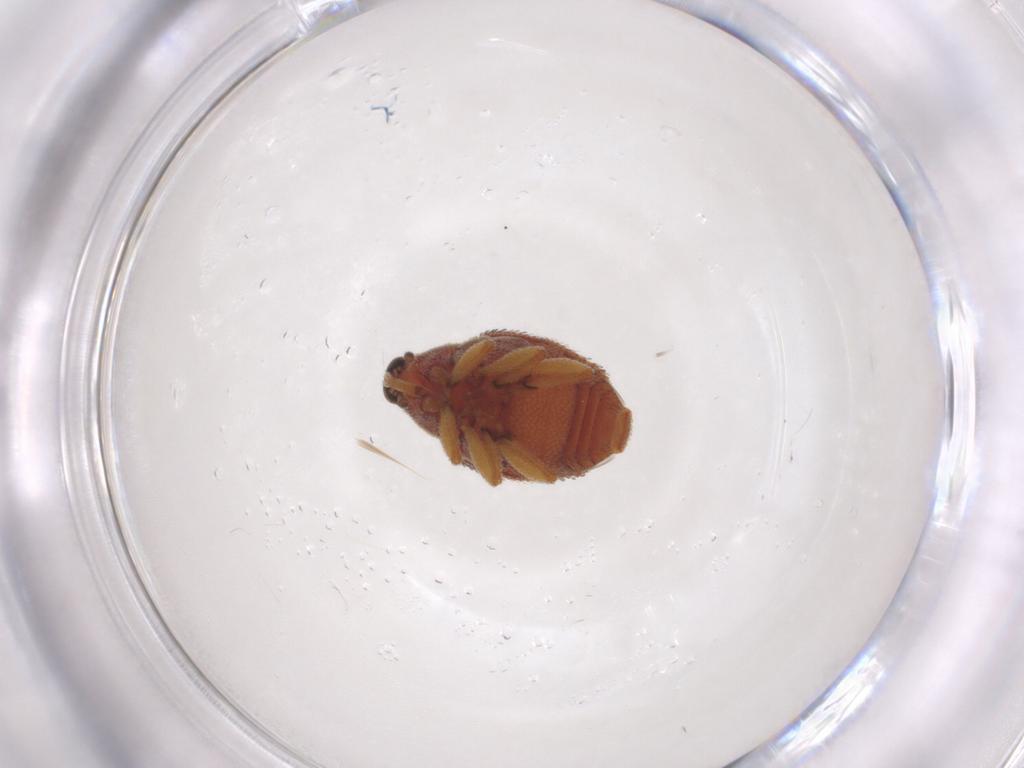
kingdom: Animalia
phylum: Arthropoda
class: Insecta
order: Coleoptera
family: Curculionidae
